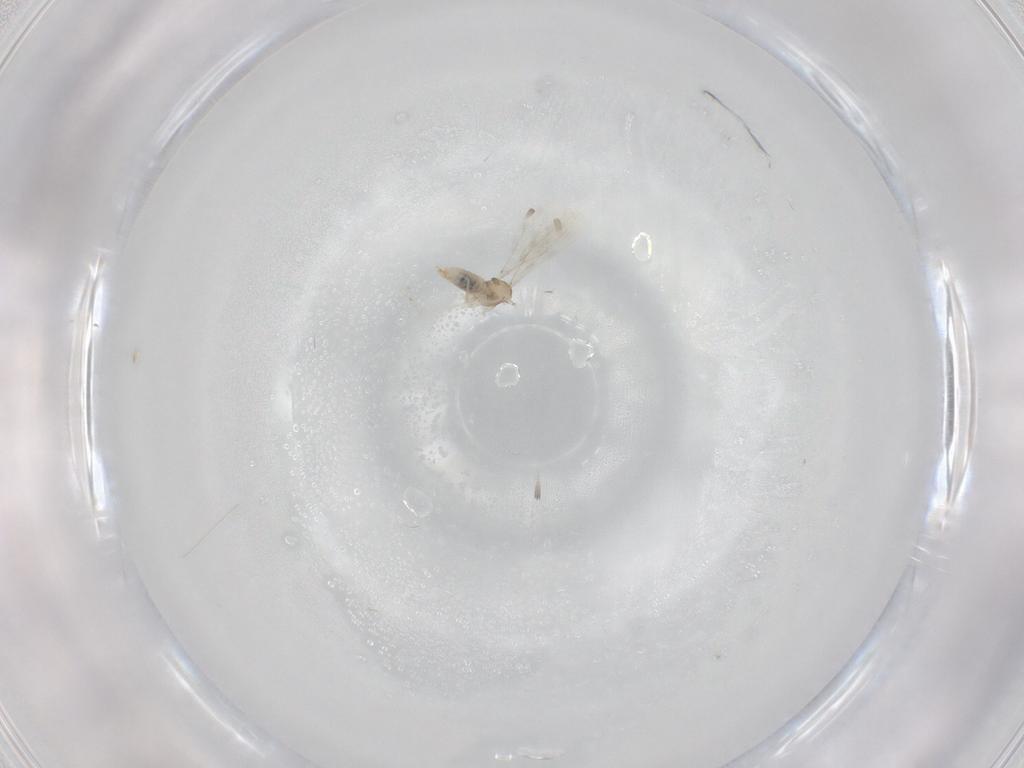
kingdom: Animalia
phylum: Arthropoda
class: Insecta
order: Diptera
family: Cecidomyiidae
